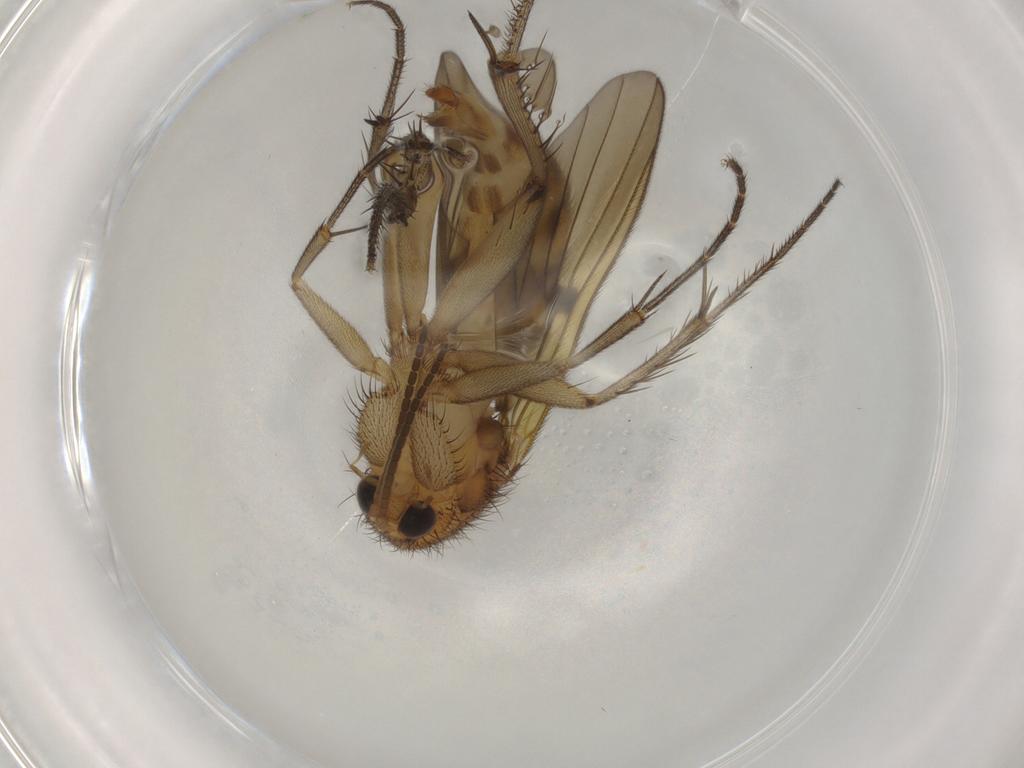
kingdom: Animalia
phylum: Arthropoda
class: Insecta
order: Diptera
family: Mycetophilidae
